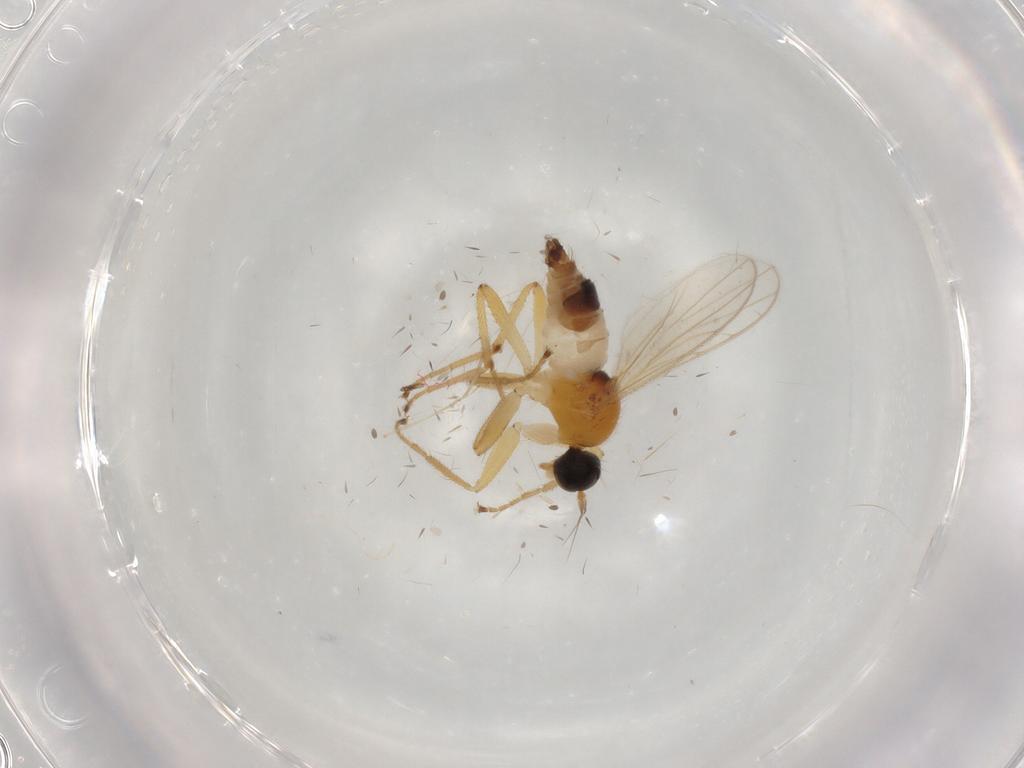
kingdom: Animalia
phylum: Arthropoda
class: Insecta
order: Diptera
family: Hybotidae
